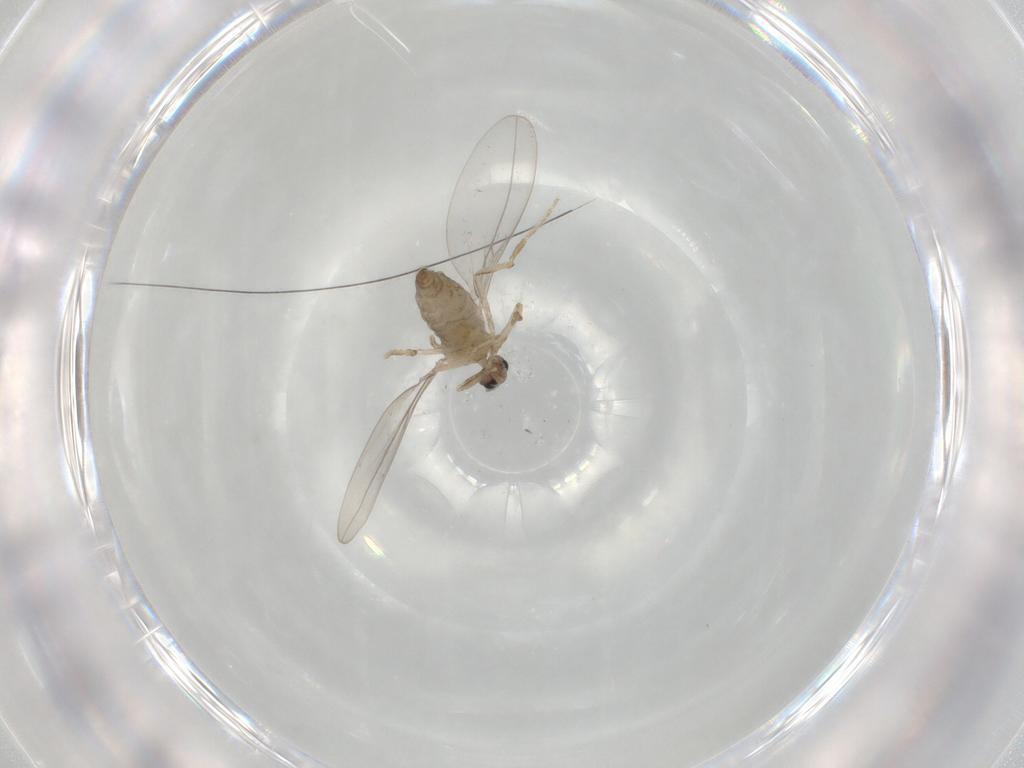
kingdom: Animalia
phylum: Arthropoda
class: Insecta
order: Diptera
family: Cecidomyiidae
